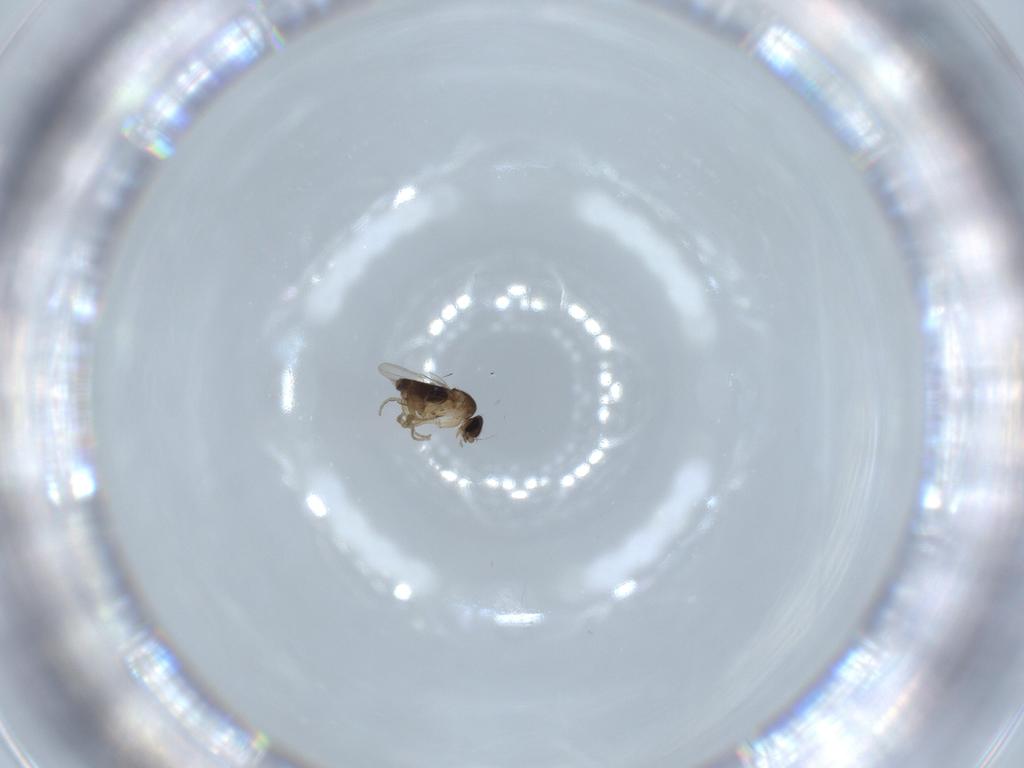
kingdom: Animalia
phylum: Arthropoda
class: Insecta
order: Diptera
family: Phoridae
